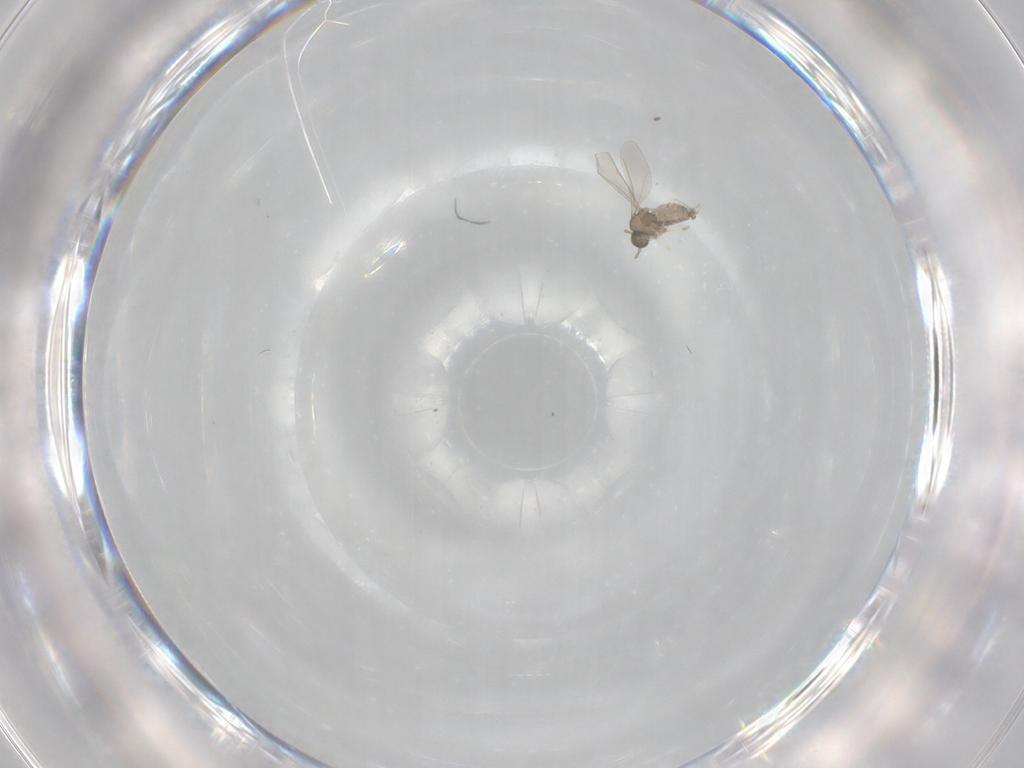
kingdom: Animalia
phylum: Arthropoda
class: Insecta
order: Diptera
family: Cecidomyiidae
